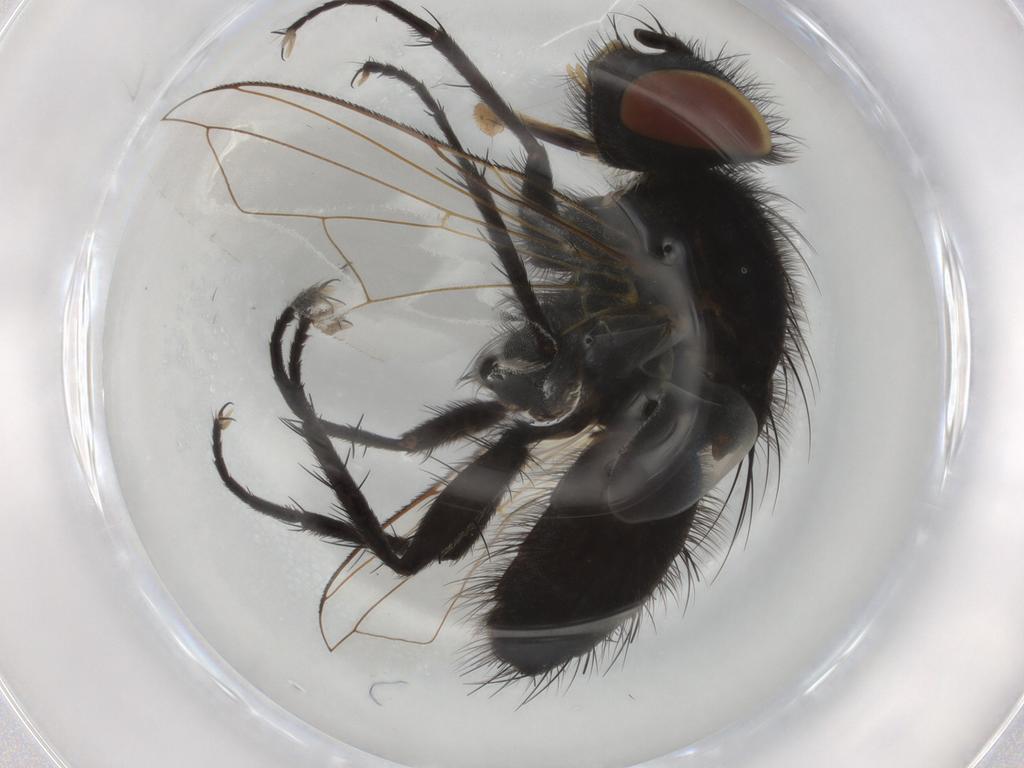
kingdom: Animalia
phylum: Arthropoda
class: Insecta
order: Diptera
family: Tachinidae
